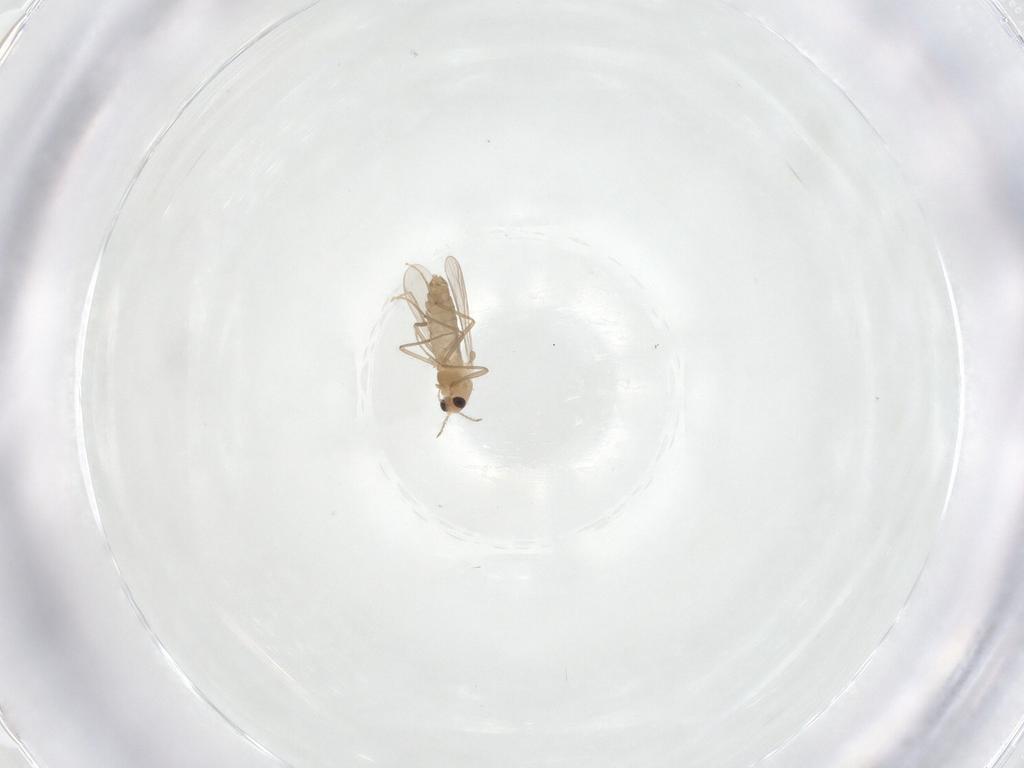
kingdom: Animalia
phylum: Arthropoda
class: Insecta
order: Diptera
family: Chironomidae
